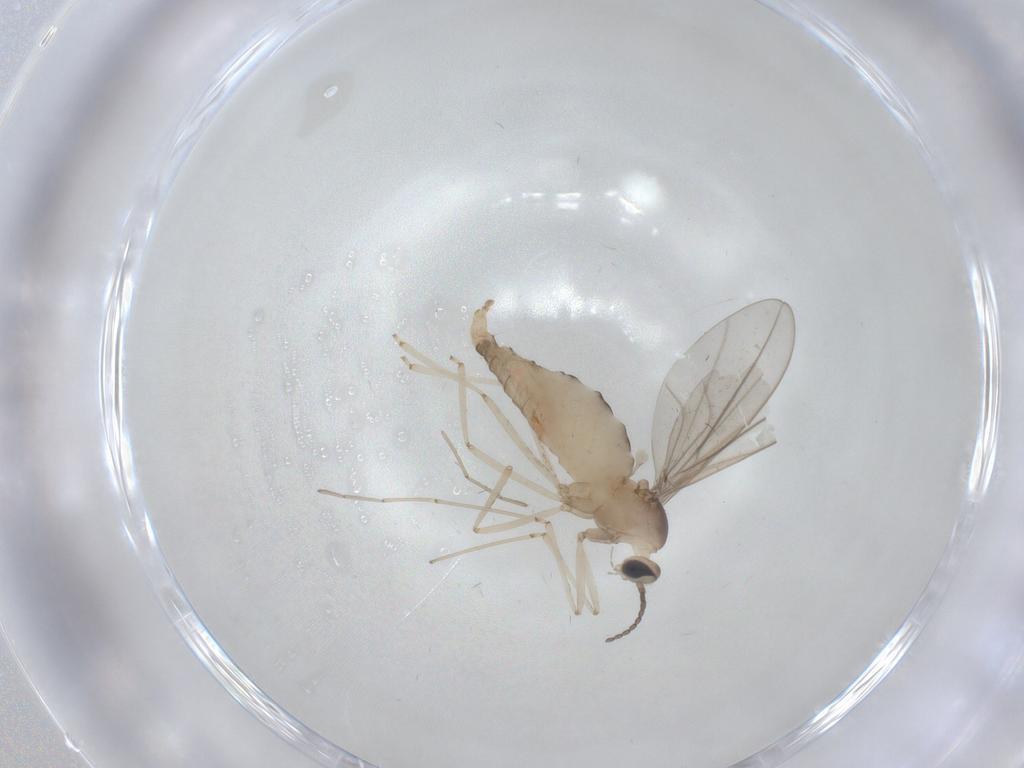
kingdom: Animalia
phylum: Arthropoda
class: Insecta
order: Diptera
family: Cecidomyiidae
